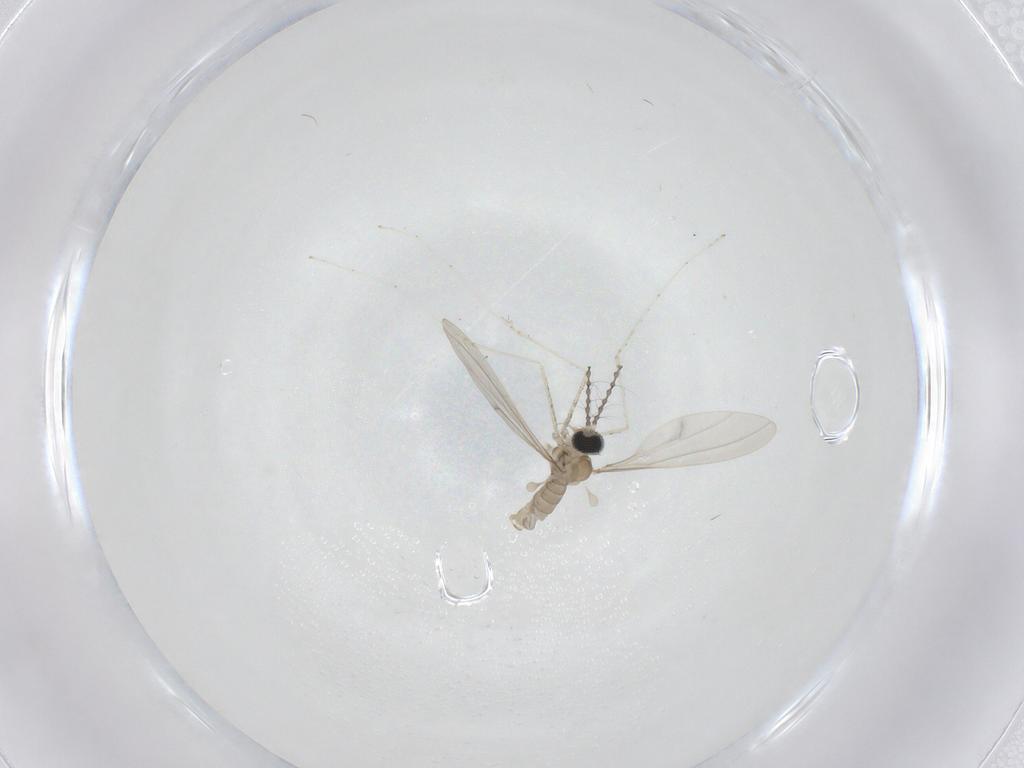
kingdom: Animalia
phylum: Arthropoda
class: Insecta
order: Diptera
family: Cecidomyiidae
